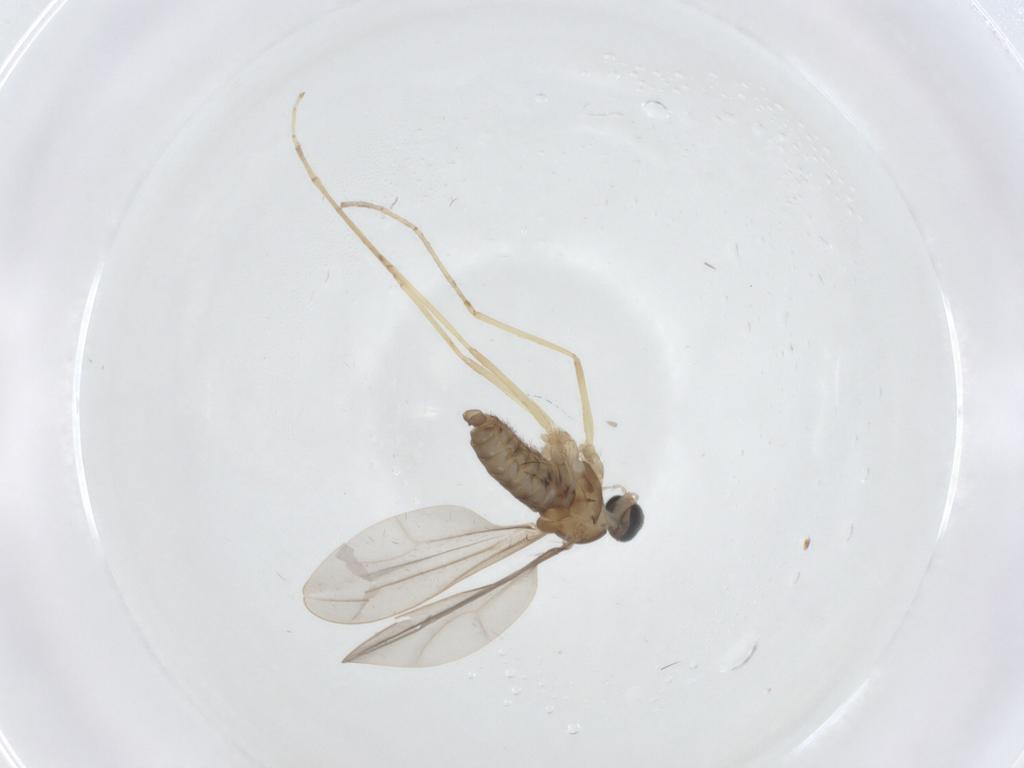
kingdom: Animalia
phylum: Arthropoda
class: Insecta
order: Diptera
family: Cecidomyiidae
